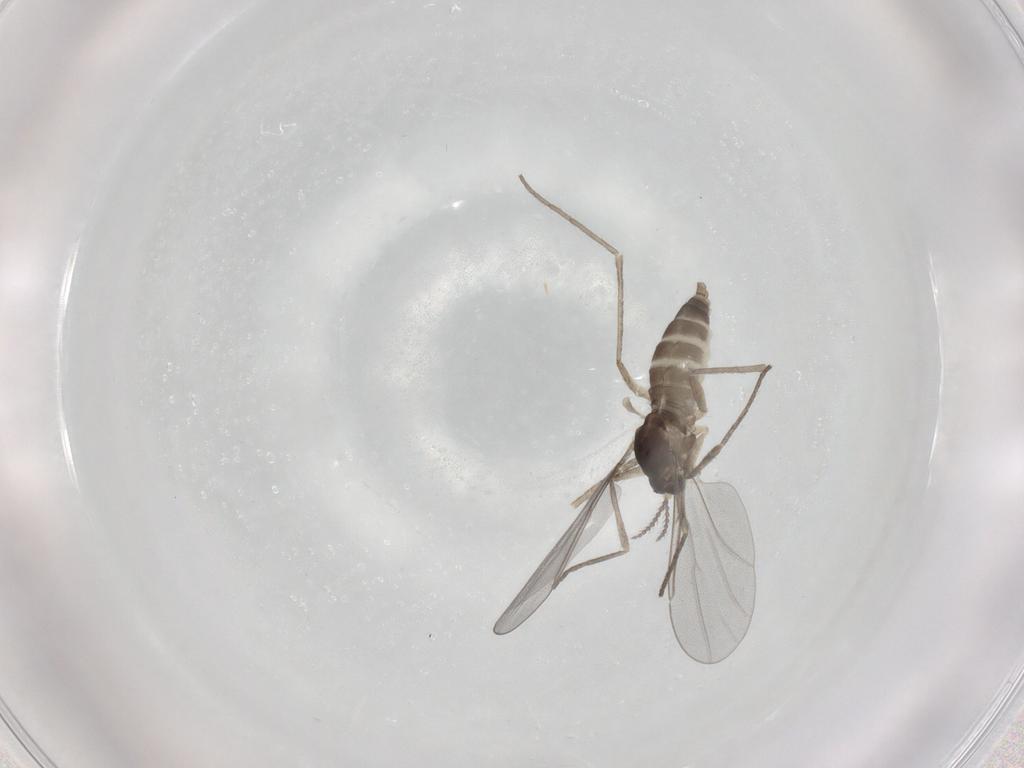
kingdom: Animalia
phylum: Arthropoda
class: Insecta
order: Diptera
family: Cecidomyiidae
